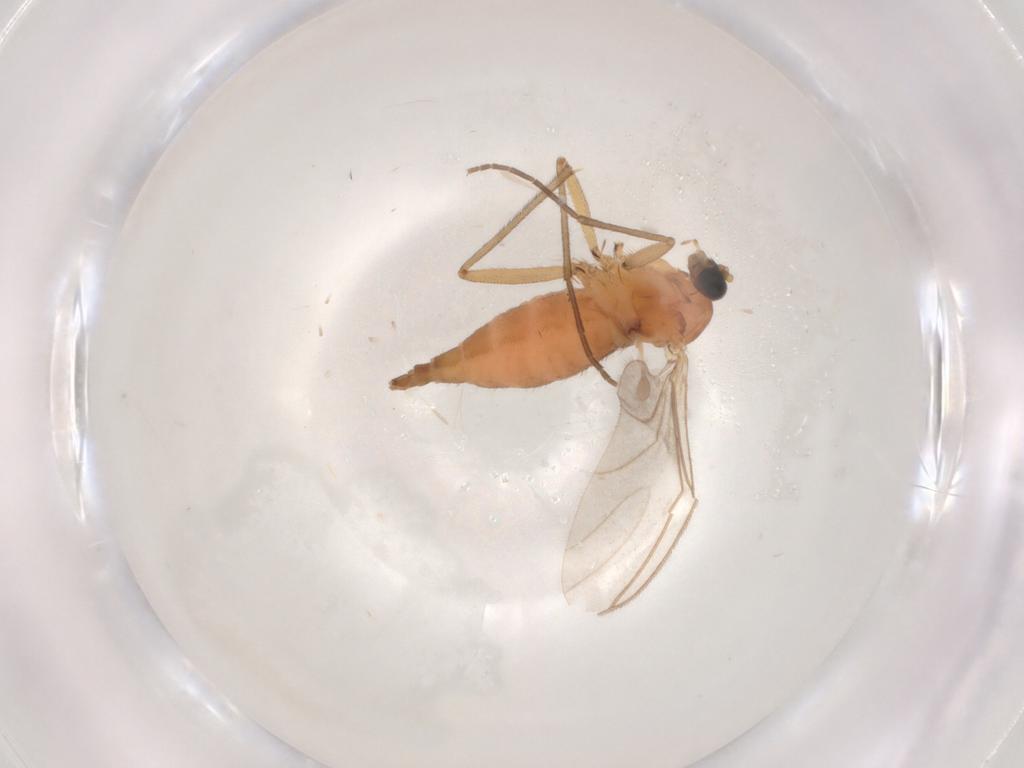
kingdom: Animalia
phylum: Arthropoda
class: Insecta
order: Diptera
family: Sciaridae
